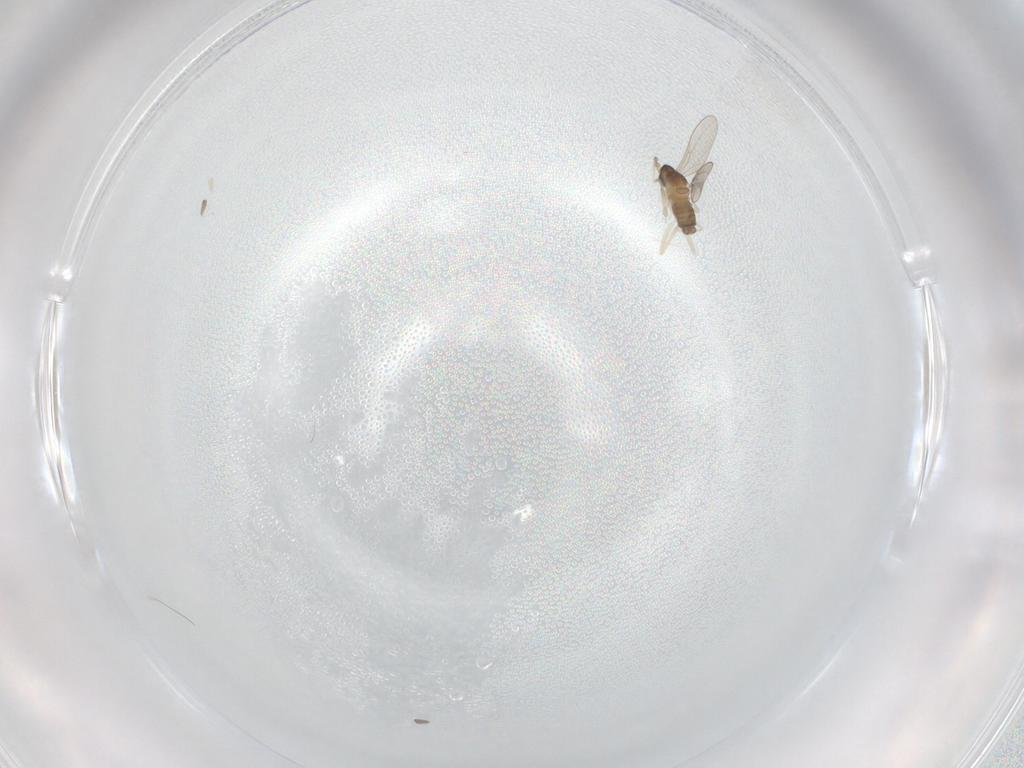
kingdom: Animalia
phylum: Arthropoda
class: Insecta
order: Diptera
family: Cecidomyiidae
